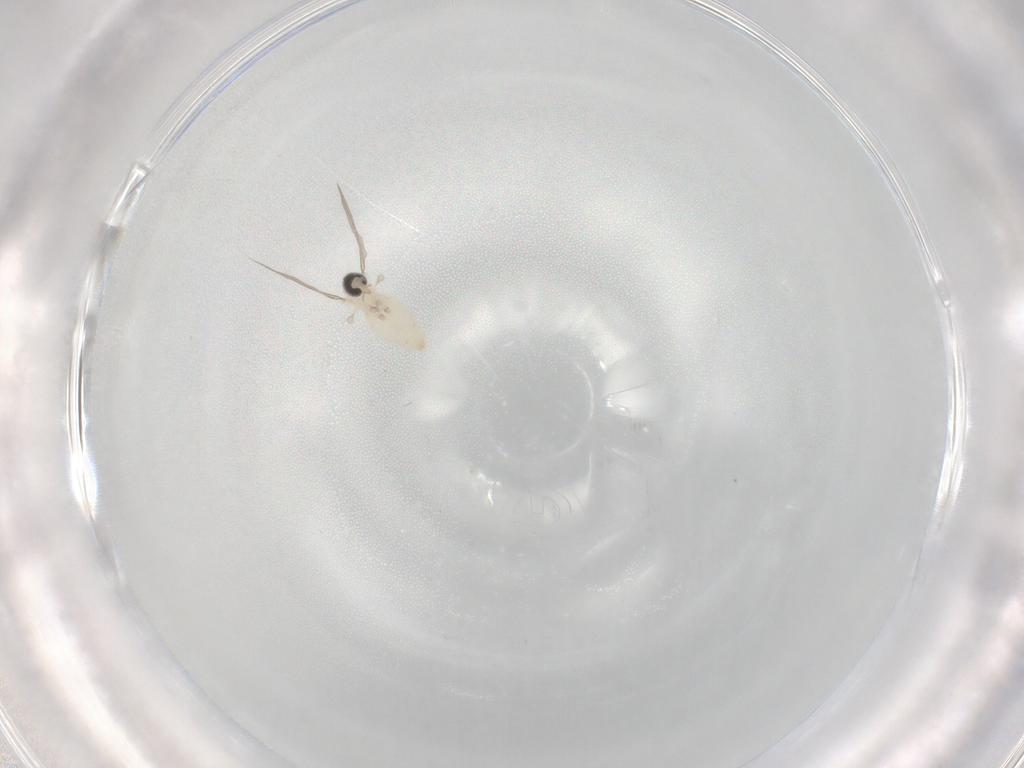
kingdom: Animalia
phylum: Arthropoda
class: Insecta
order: Diptera
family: Cecidomyiidae
